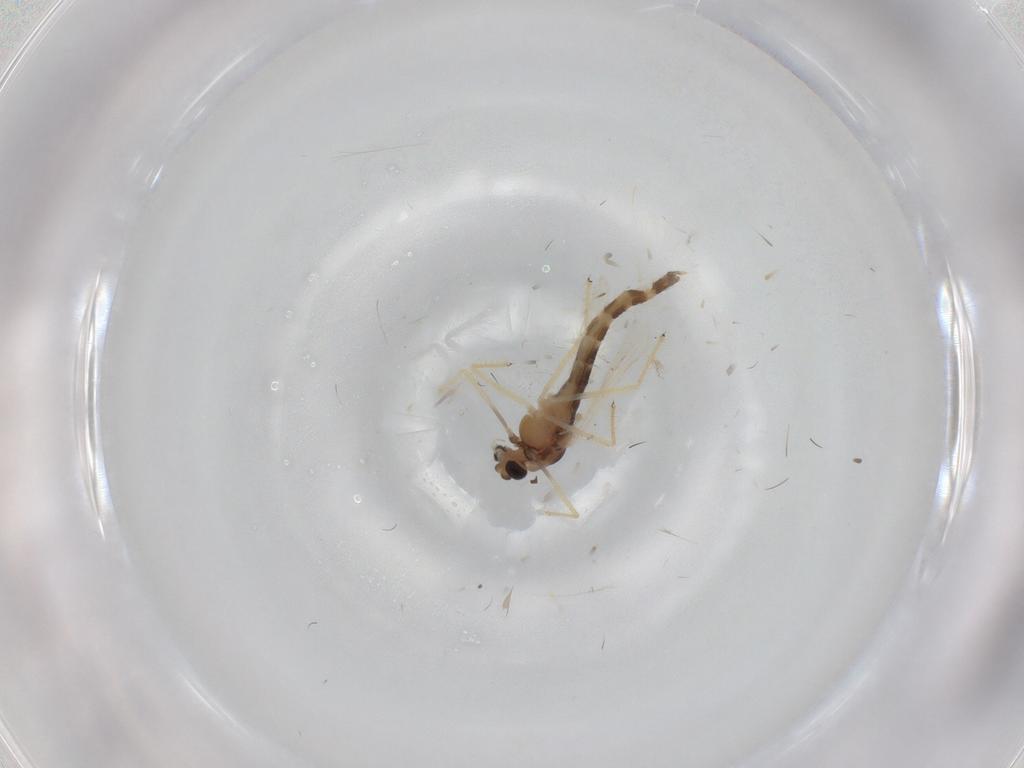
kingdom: Animalia
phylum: Arthropoda
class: Insecta
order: Diptera
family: Chironomidae
